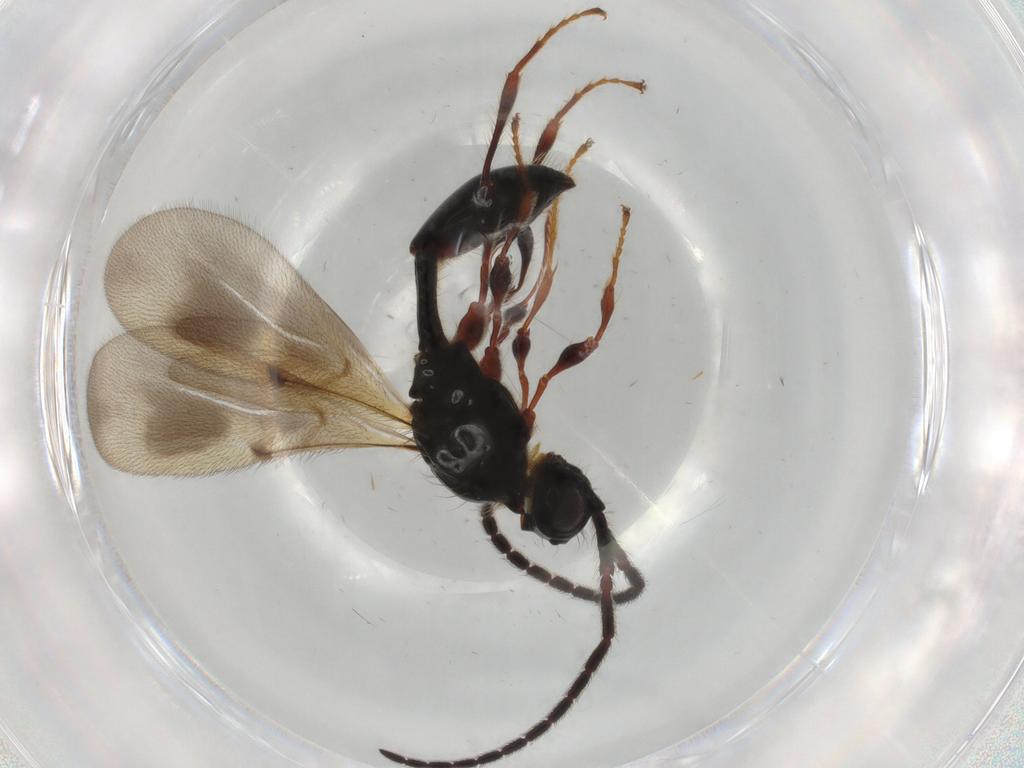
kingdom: Animalia
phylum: Arthropoda
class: Insecta
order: Hymenoptera
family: Diapriidae
